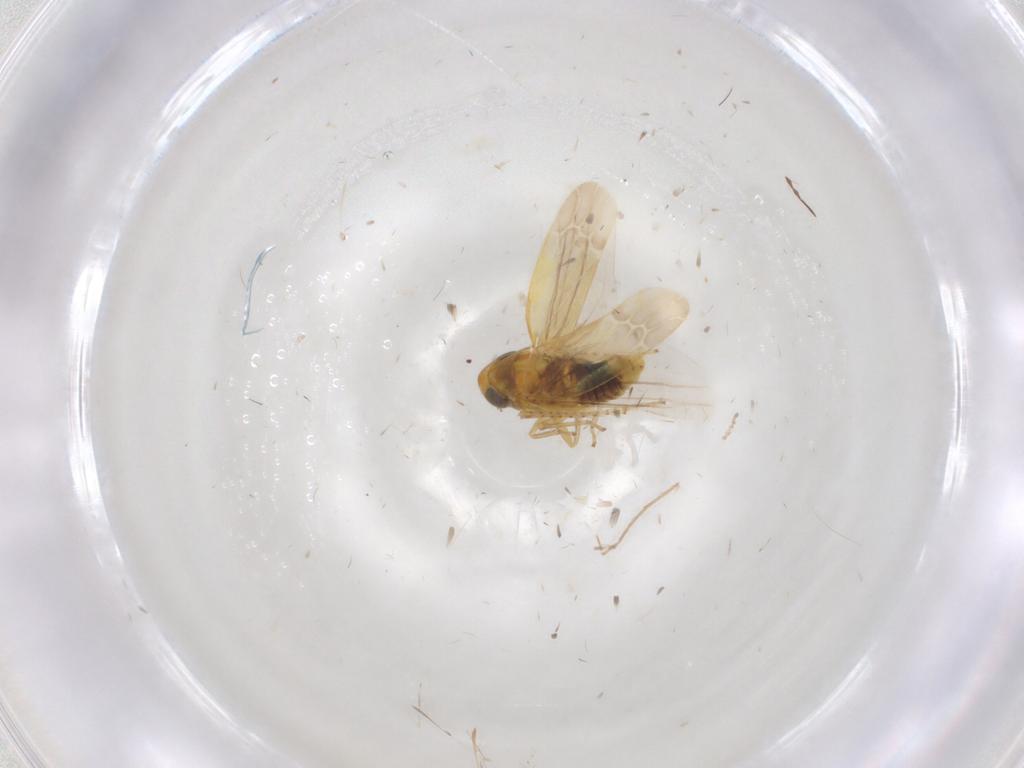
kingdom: Animalia
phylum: Arthropoda
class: Insecta
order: Hemiptera
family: Cicadellidae
